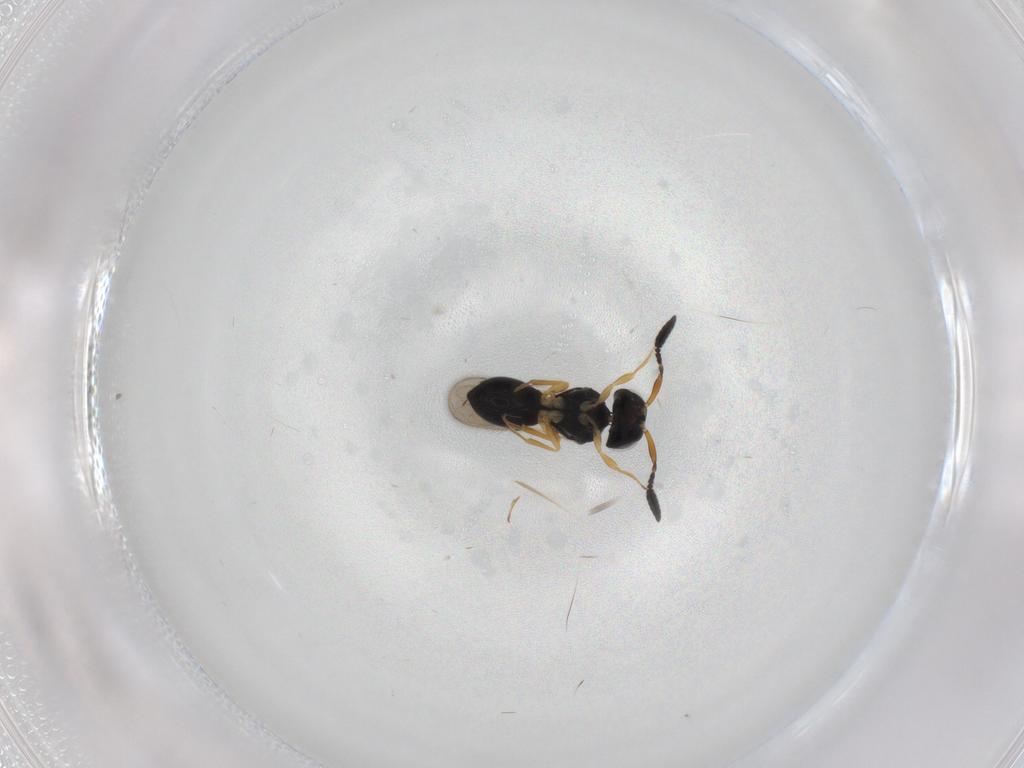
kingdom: Animalia
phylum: Arthropoda
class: Insecta
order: Hymenoptera
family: Scelionidae
